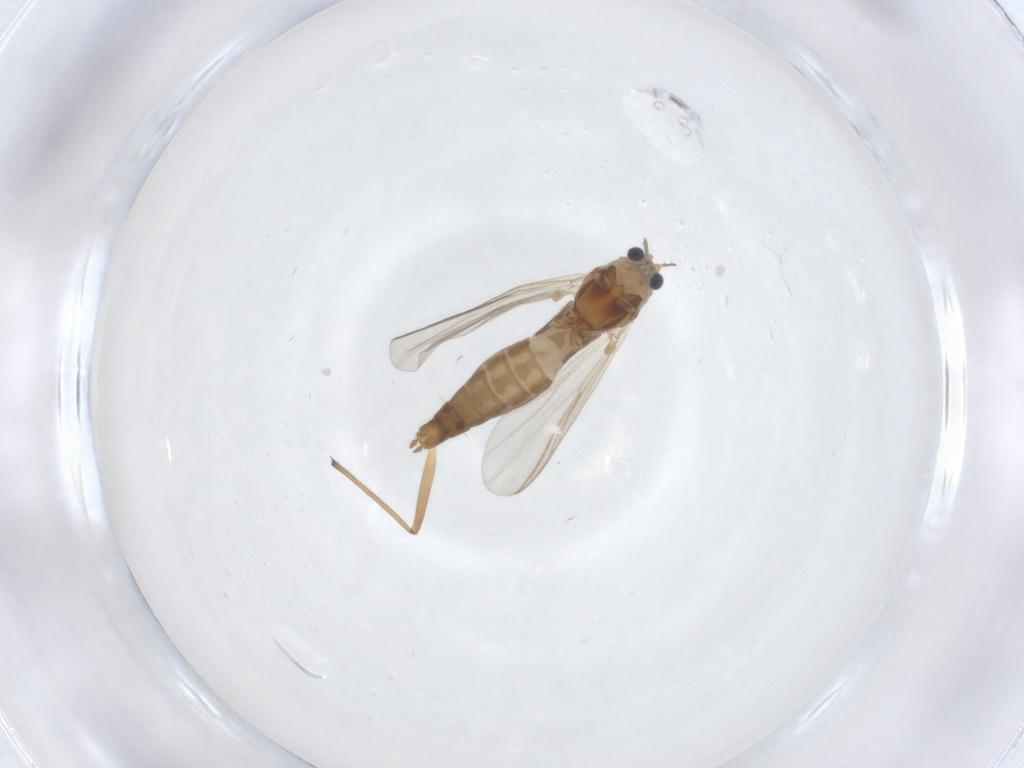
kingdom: Animalia
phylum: Arthropoda
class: Insecta
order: Diptera
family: Chironomidae
